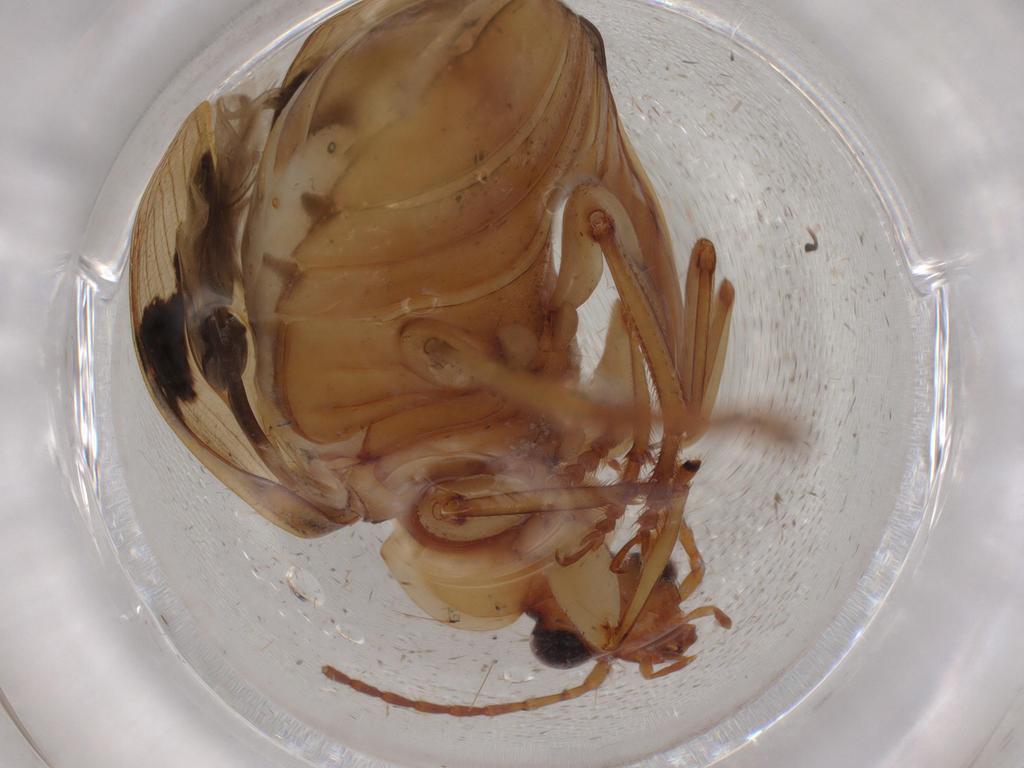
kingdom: Animalia
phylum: Arthropoda
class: Insecta
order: Coleoptera
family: Carabidae
